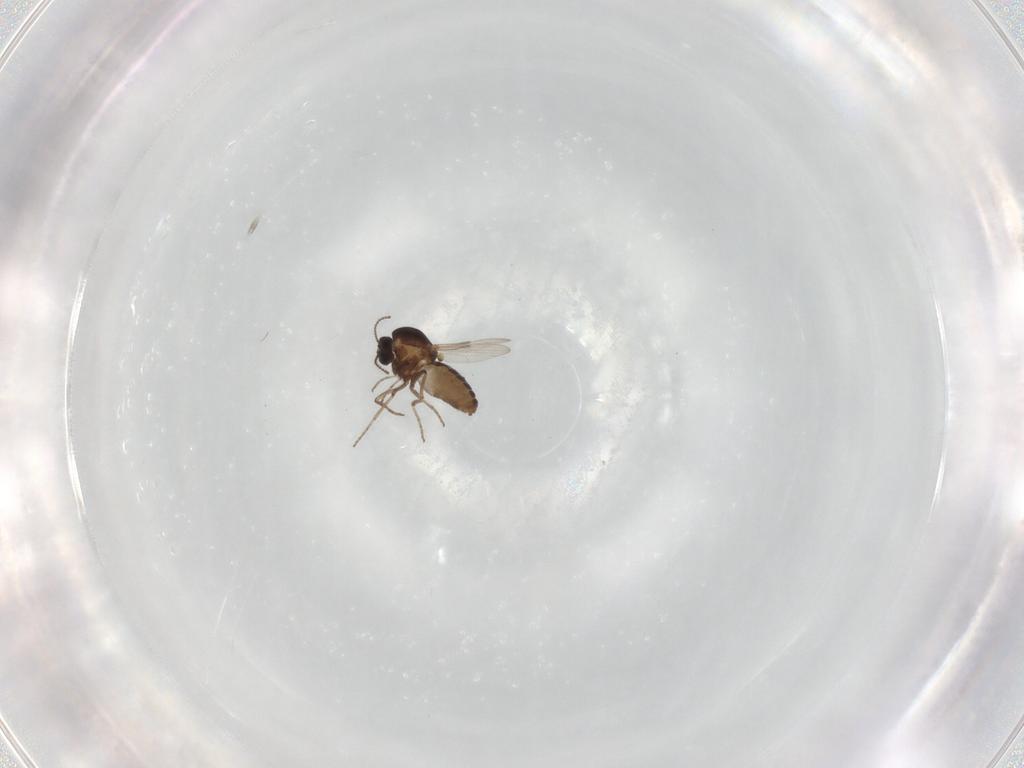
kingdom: Animalia
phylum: Arthropoda
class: Insecta
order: Diptera
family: Ceratopogonidae
